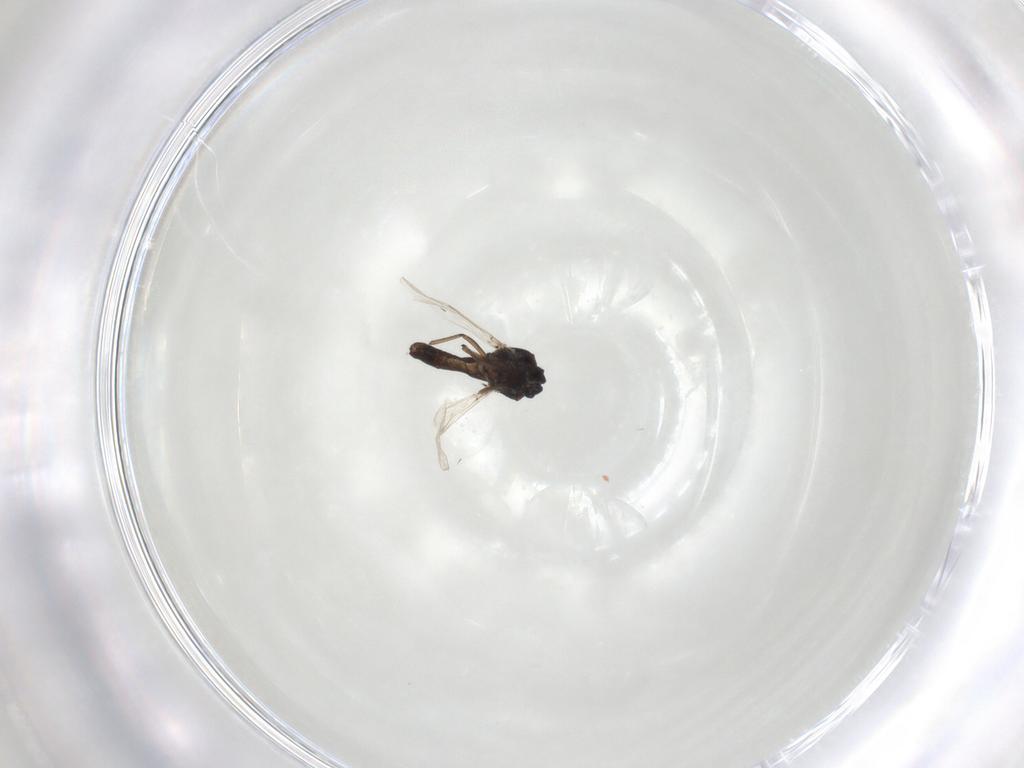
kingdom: Animalia
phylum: Arthropoda
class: Insecta
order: Diptera
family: Ceratopogonidae
